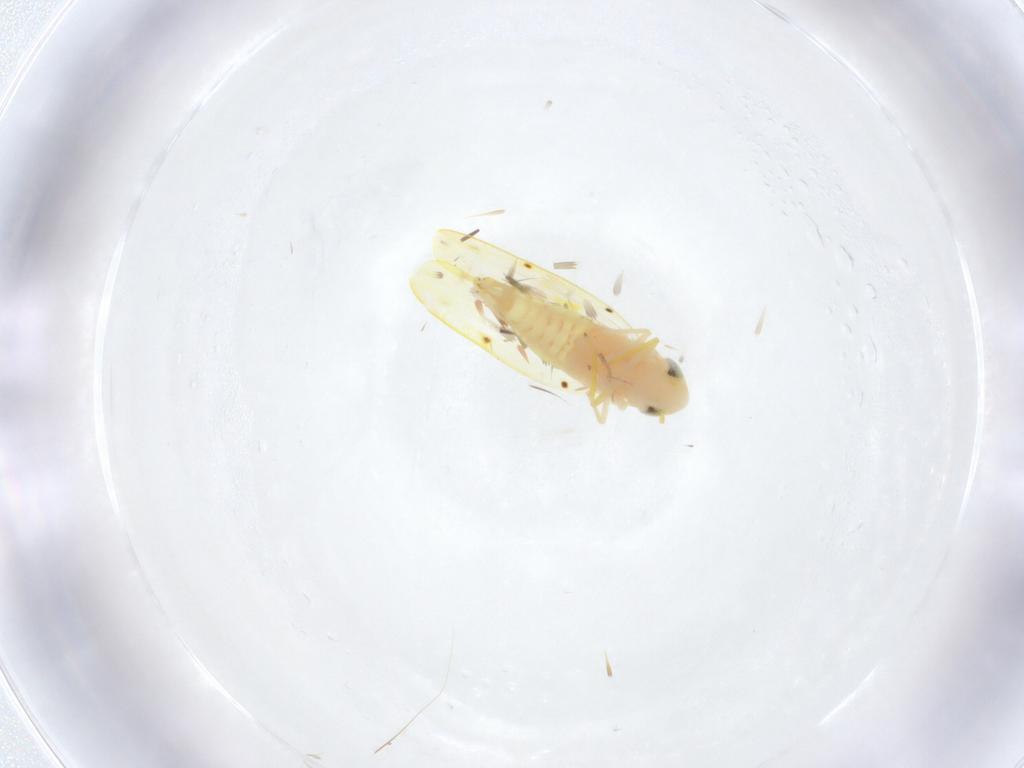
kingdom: Animalia
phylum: Arthropoda
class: Insecta
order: Hemiptera
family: Cicadellidae
